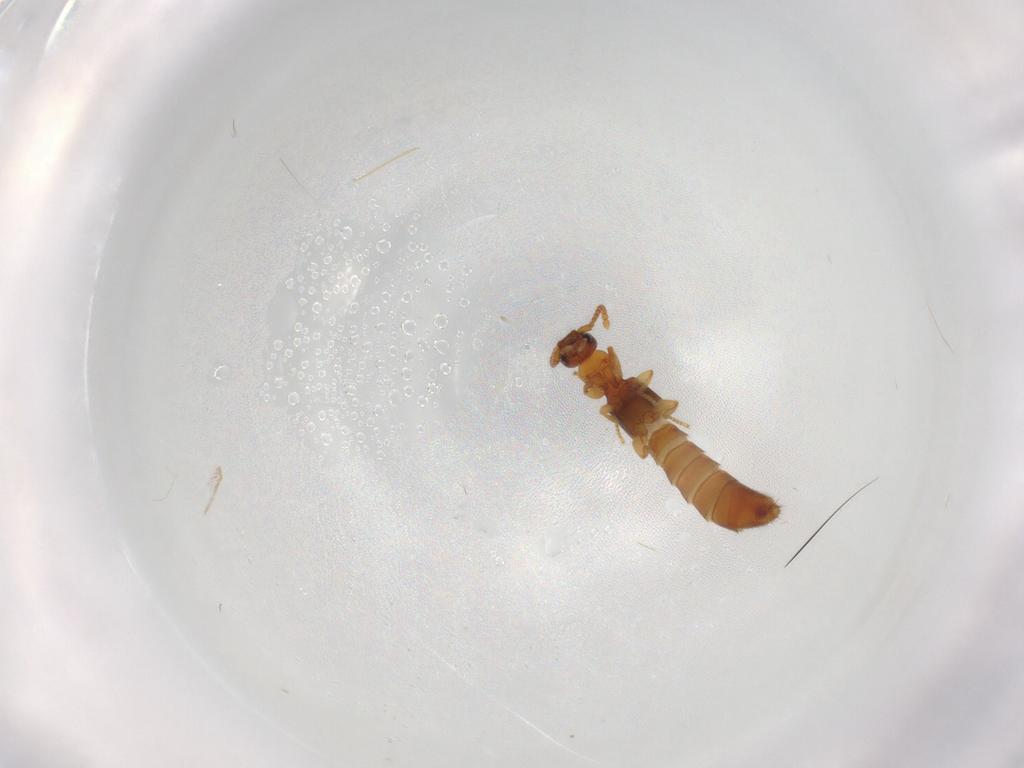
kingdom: Animalia
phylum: Arthropoda
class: Insecta
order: Coleoptera
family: Staphylinidae
